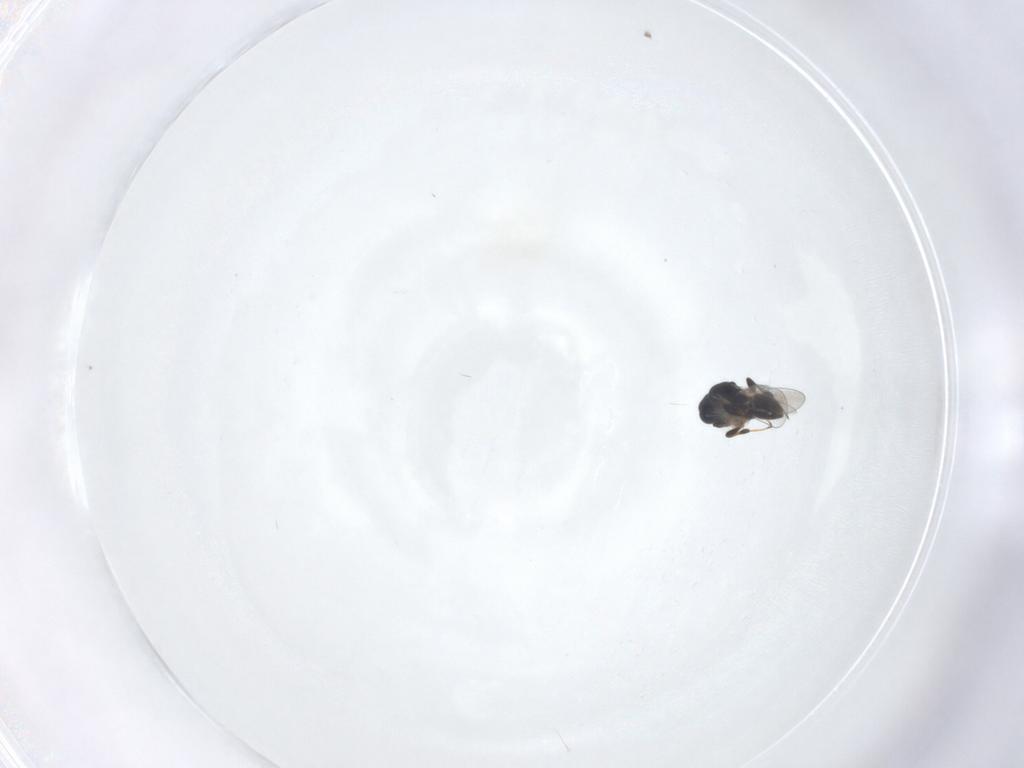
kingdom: Animalia
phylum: Arthropoda
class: Insecta
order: Hymenoptera
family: Platygastridae
